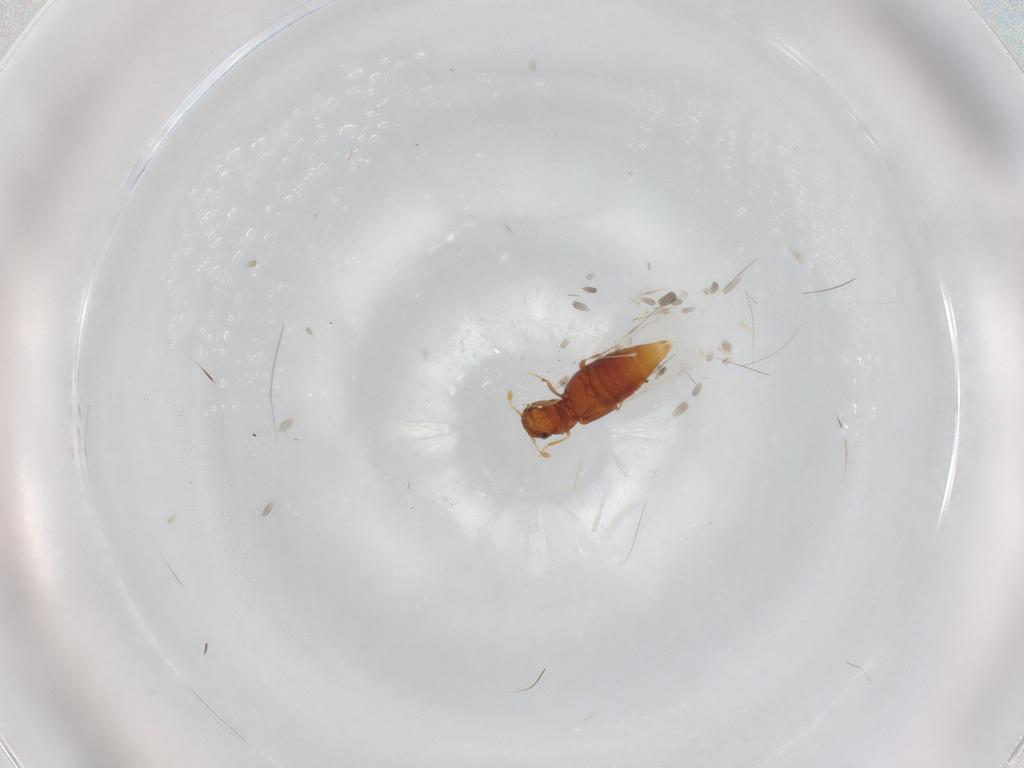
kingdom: Animalia
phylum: Arthropoda
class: Insecta
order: Coleoptera
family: Staphylinidae
